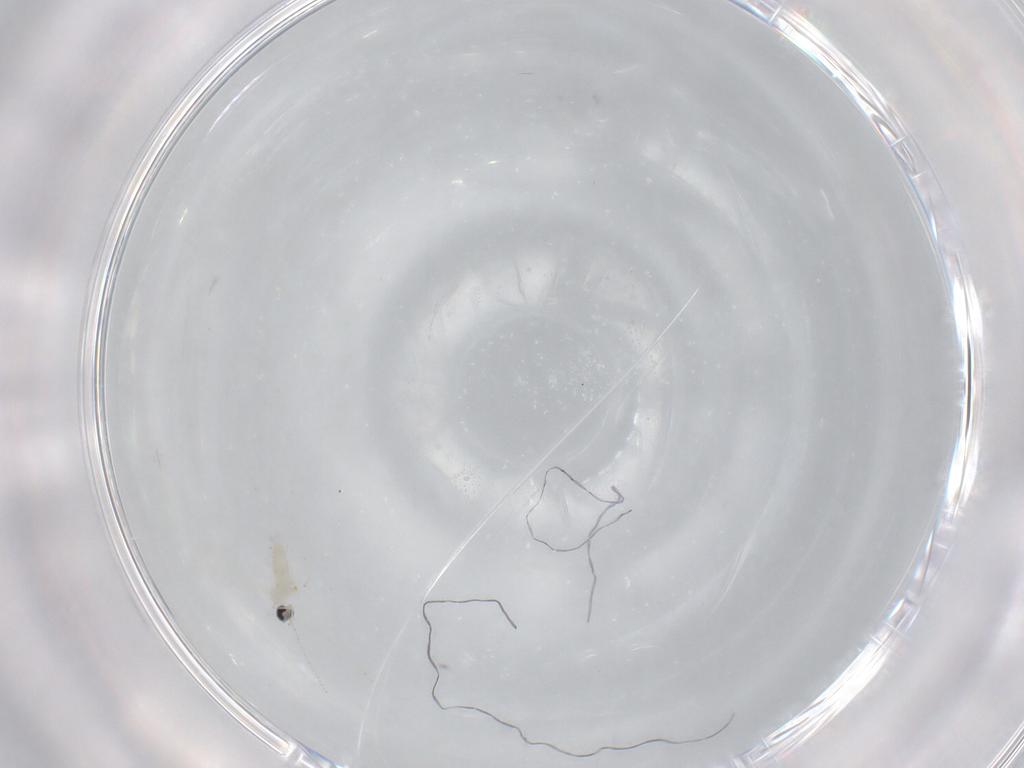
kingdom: Animalia
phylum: Arthropoda
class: Insecta
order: Diptera
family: Cecidomyiidae
